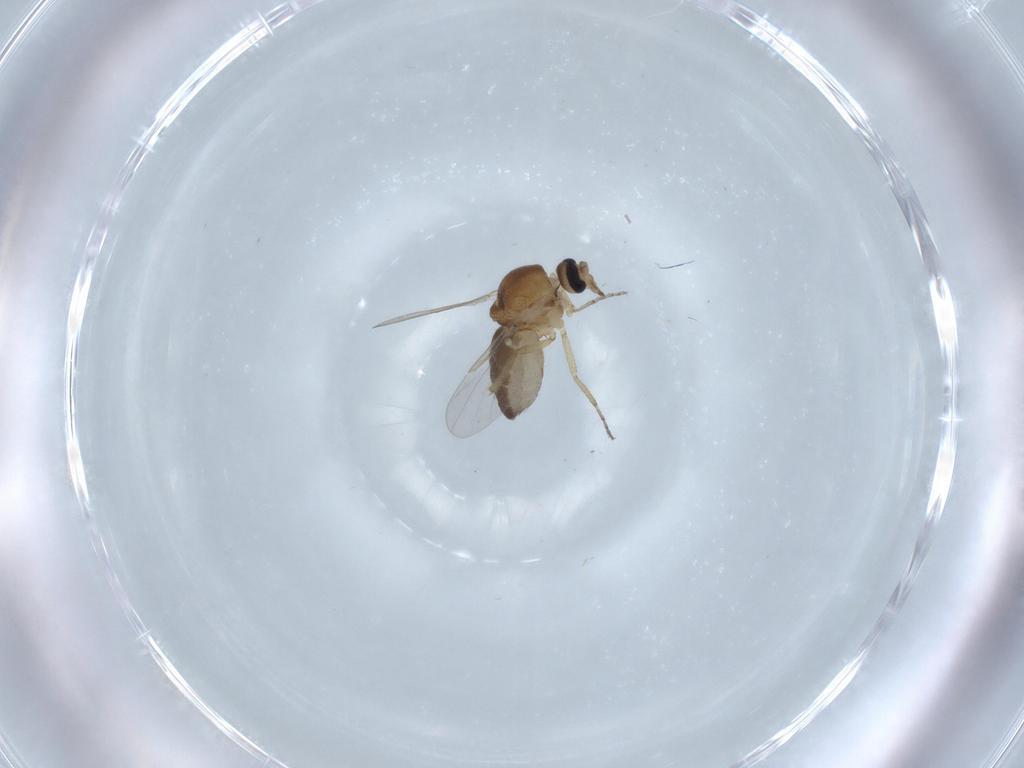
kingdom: Animalia
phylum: Arthropoda
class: Insecta
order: Diptera
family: Ceratopogonidae
